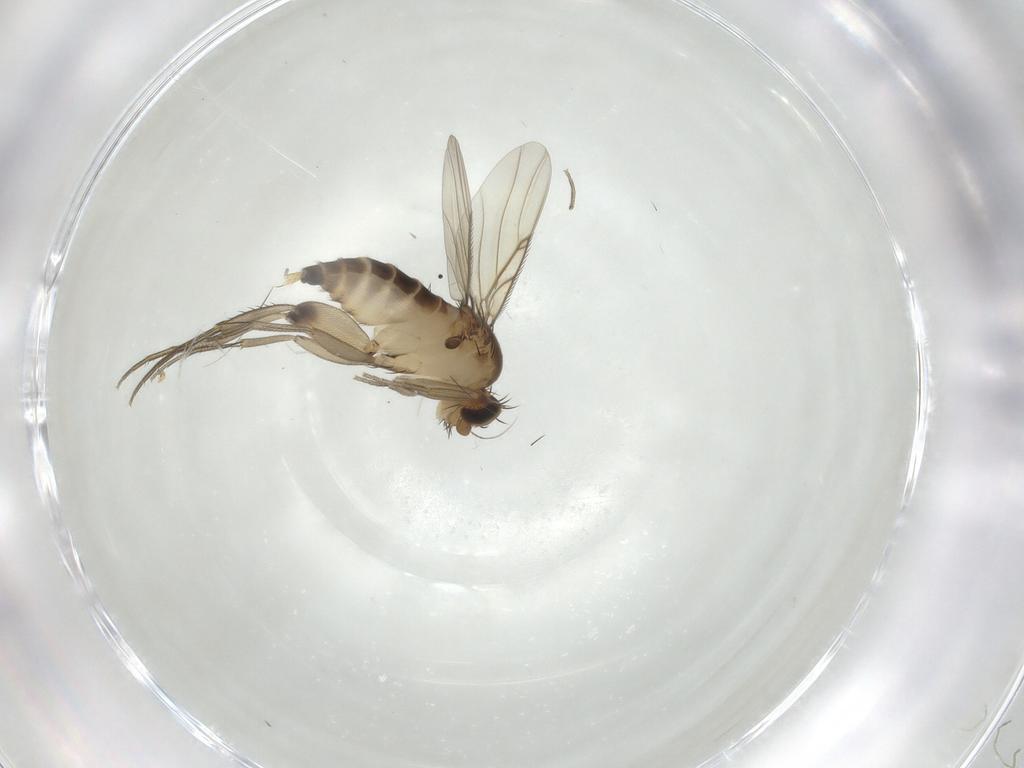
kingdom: Animalia
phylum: Arthropoda
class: Insecta
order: Diptera
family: Phoridae
